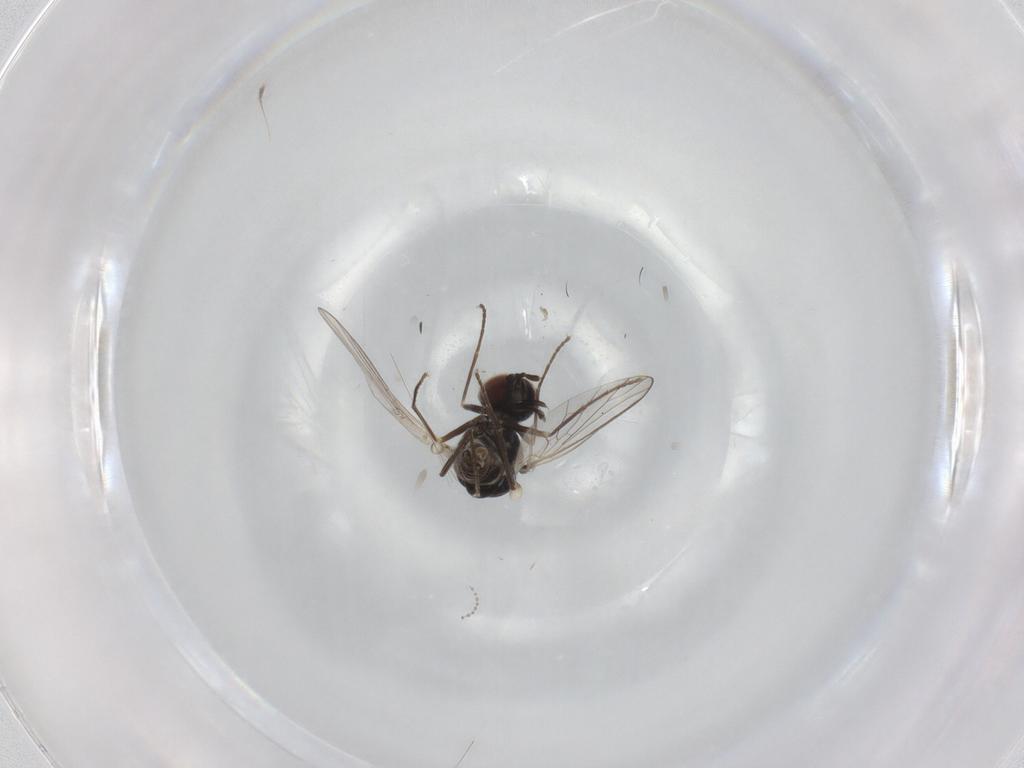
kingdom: Animalia
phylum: Arthropoda
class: Insecta
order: Diptera
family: Bombyliidae
